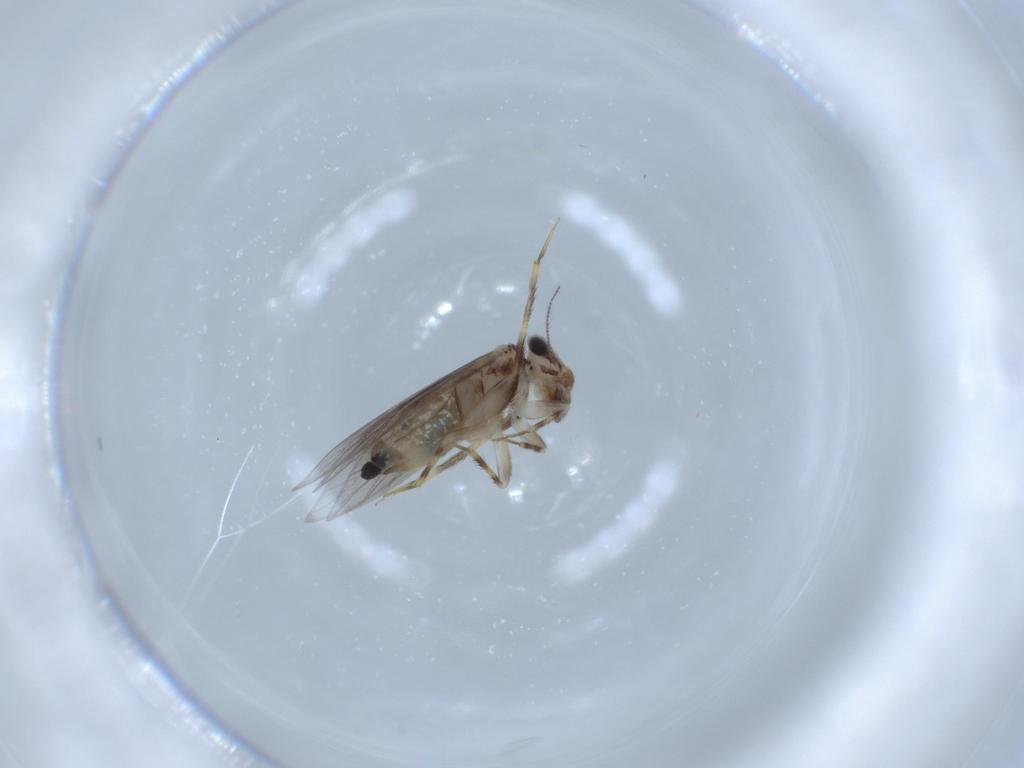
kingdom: Animalia
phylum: Arthropoda
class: Insecta
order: Psocodea
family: Lepidopsocidae
